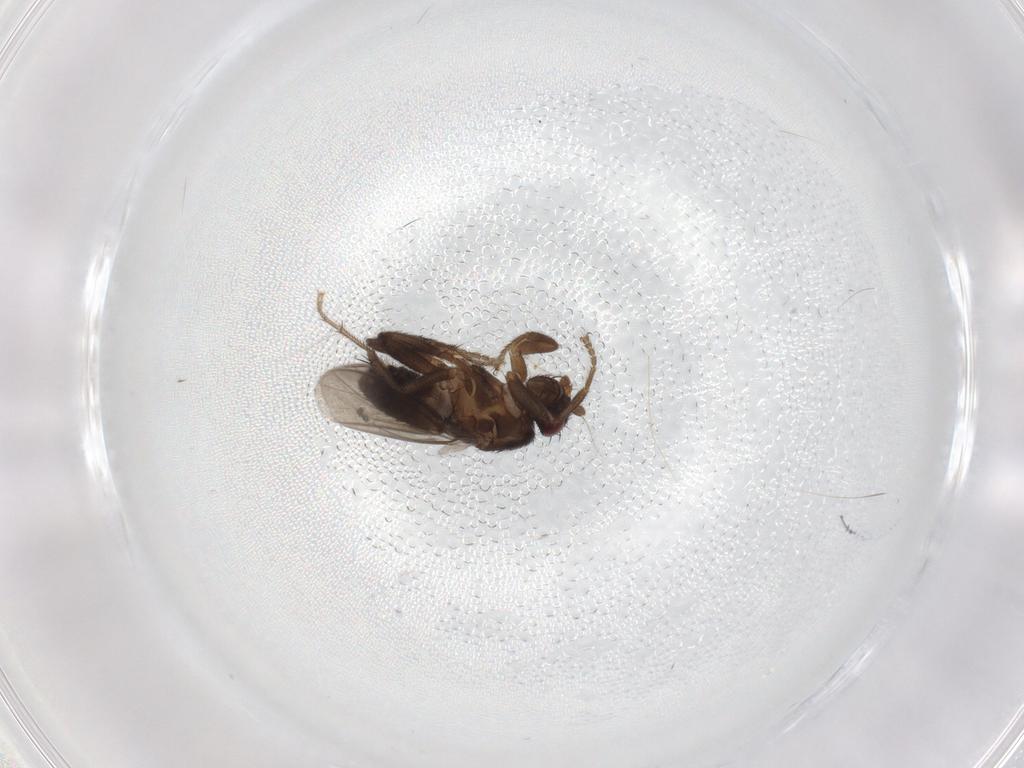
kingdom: Animalia
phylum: Arthropoda
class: Insecta
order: Diptera
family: Sphaeroceridae
